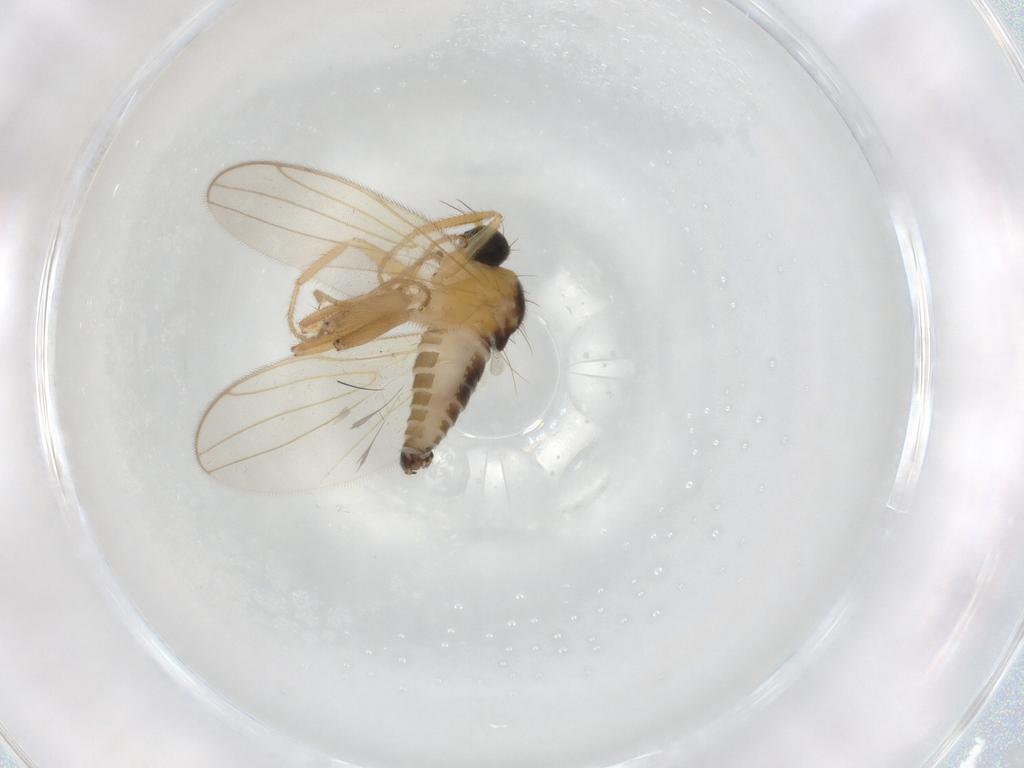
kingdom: Animalia
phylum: Arthropoda
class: Insecta
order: Diptera
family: Hybotidae
